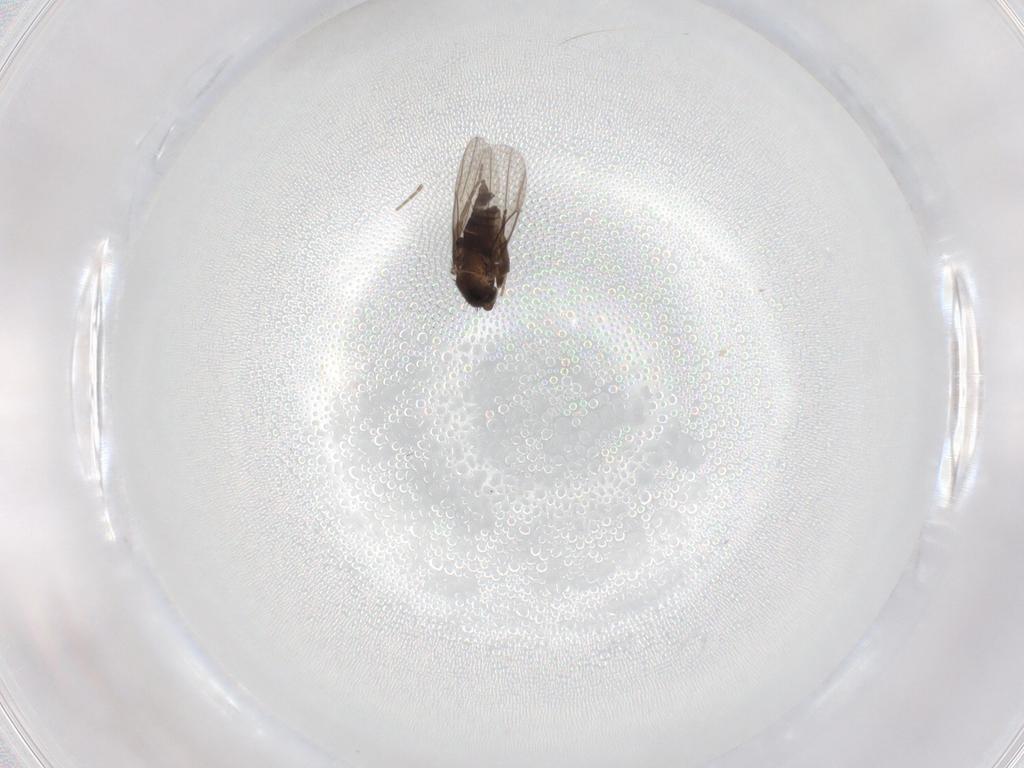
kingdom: Animalia
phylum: Arthropoda
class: Insecta
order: Diptera
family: Phoridae
